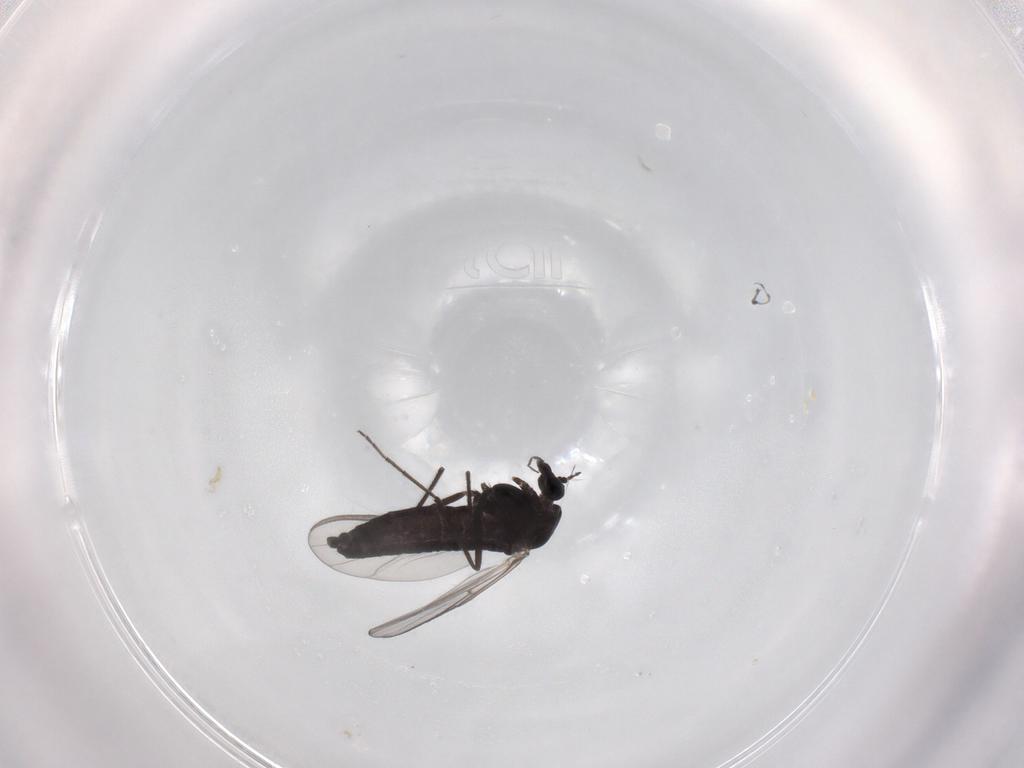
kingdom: Animalia
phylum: Arthropoda
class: Insecta
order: Diptera
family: Chironomidae
